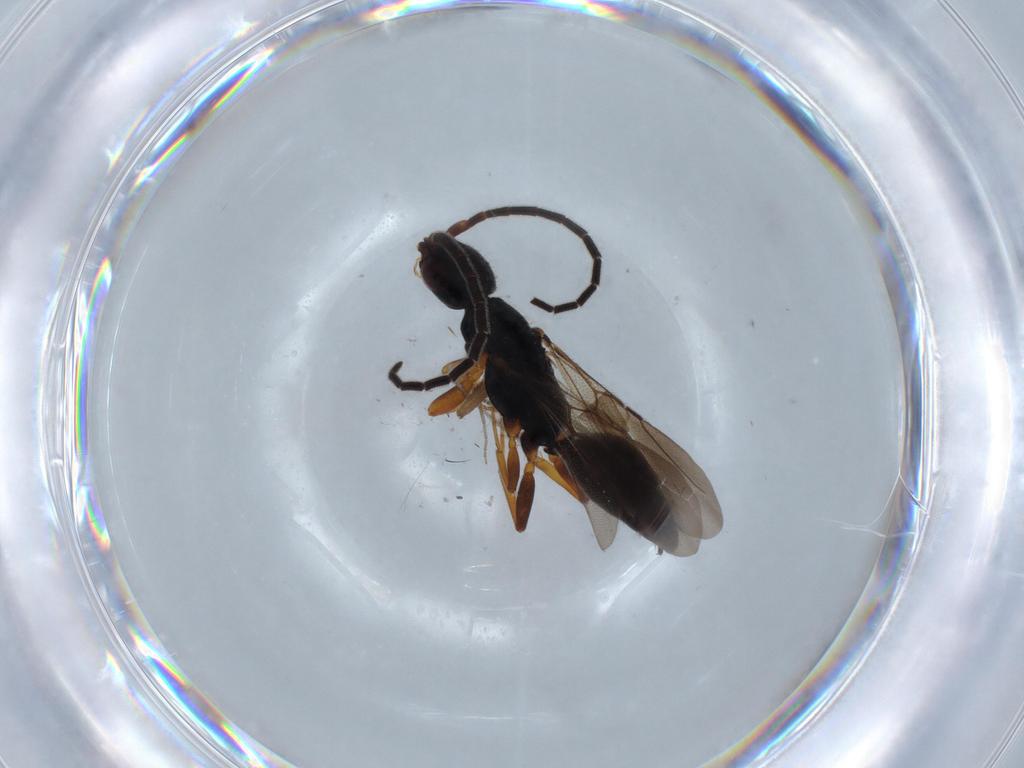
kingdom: Animalia
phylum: Arthropoda
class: Insecta
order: Hymenoptera
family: Bethylidae
